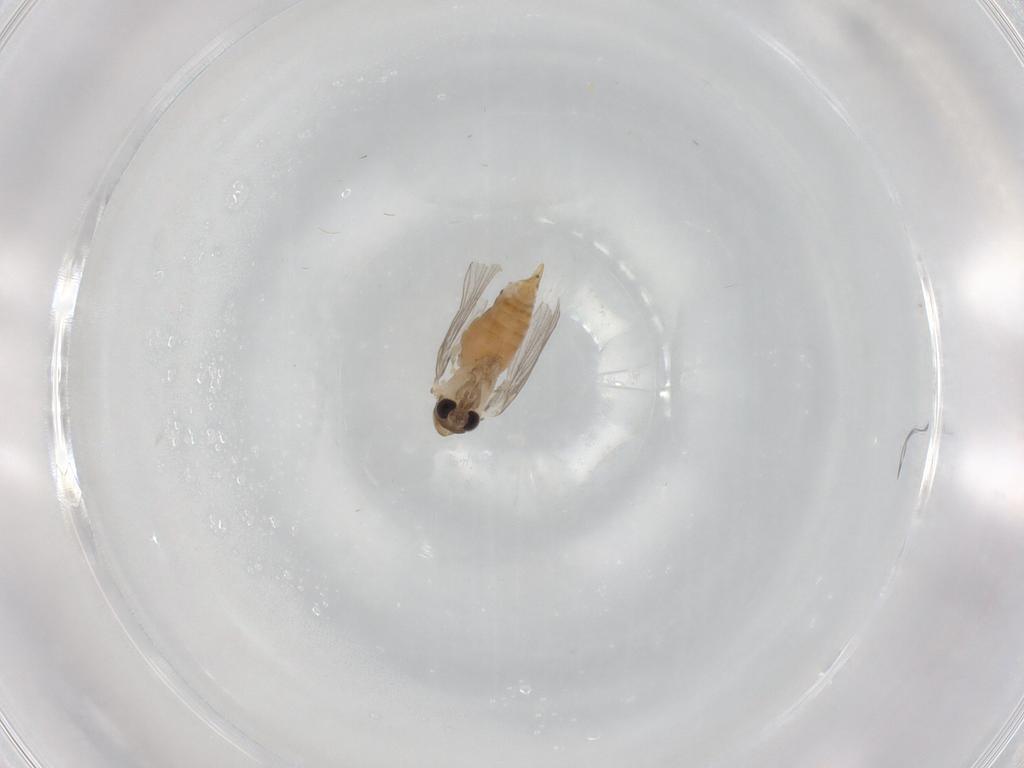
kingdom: Animalia
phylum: Arthropoda
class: Insecta
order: Diptera
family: Psychodidae
